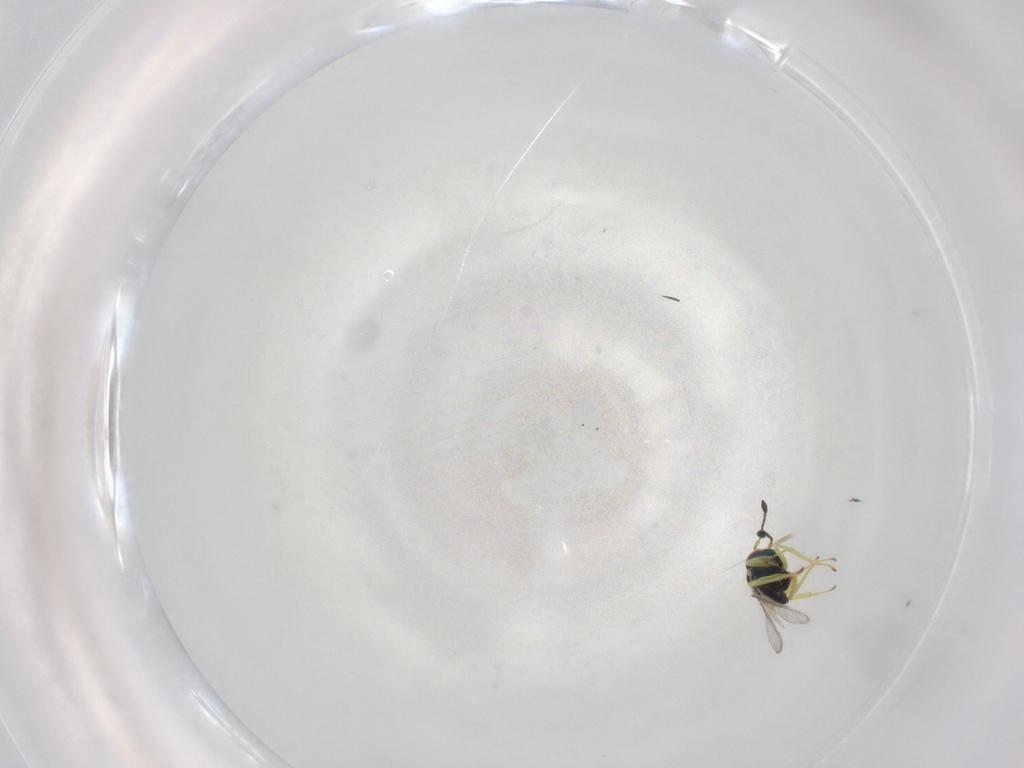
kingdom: Animalia
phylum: Arthropoda
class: Insecta
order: Hymenoptera
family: Pteromalidae
